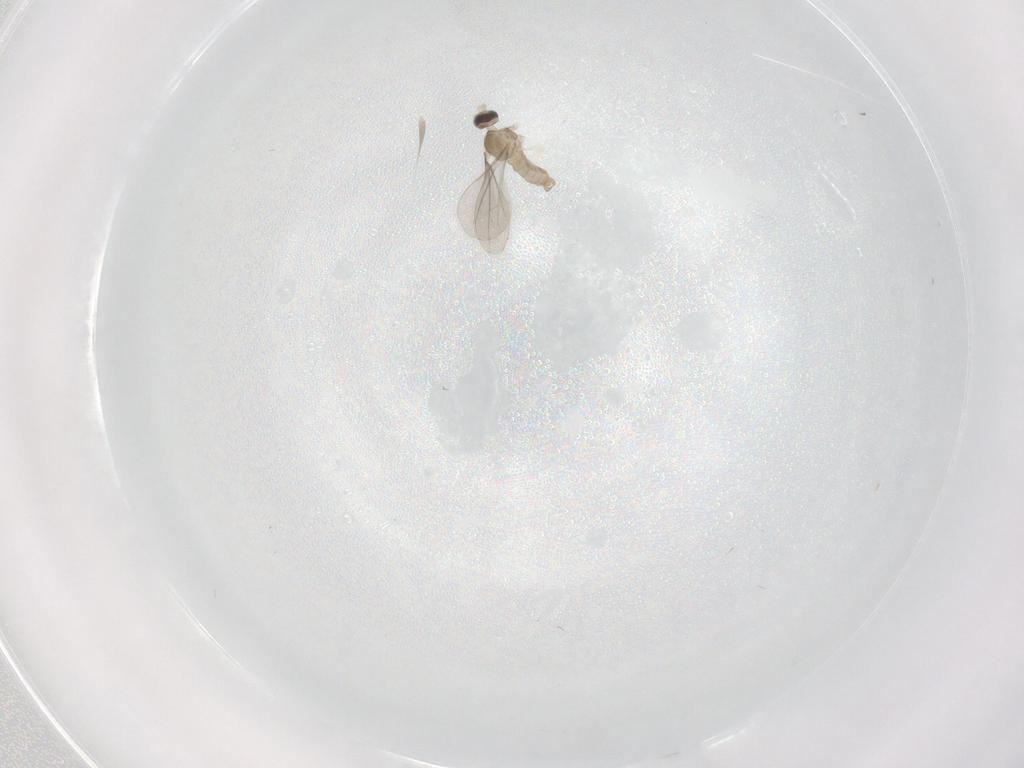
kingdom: Animalia
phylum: Arthropoda
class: Insecta
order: Diptera
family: Cecidomyiidae
